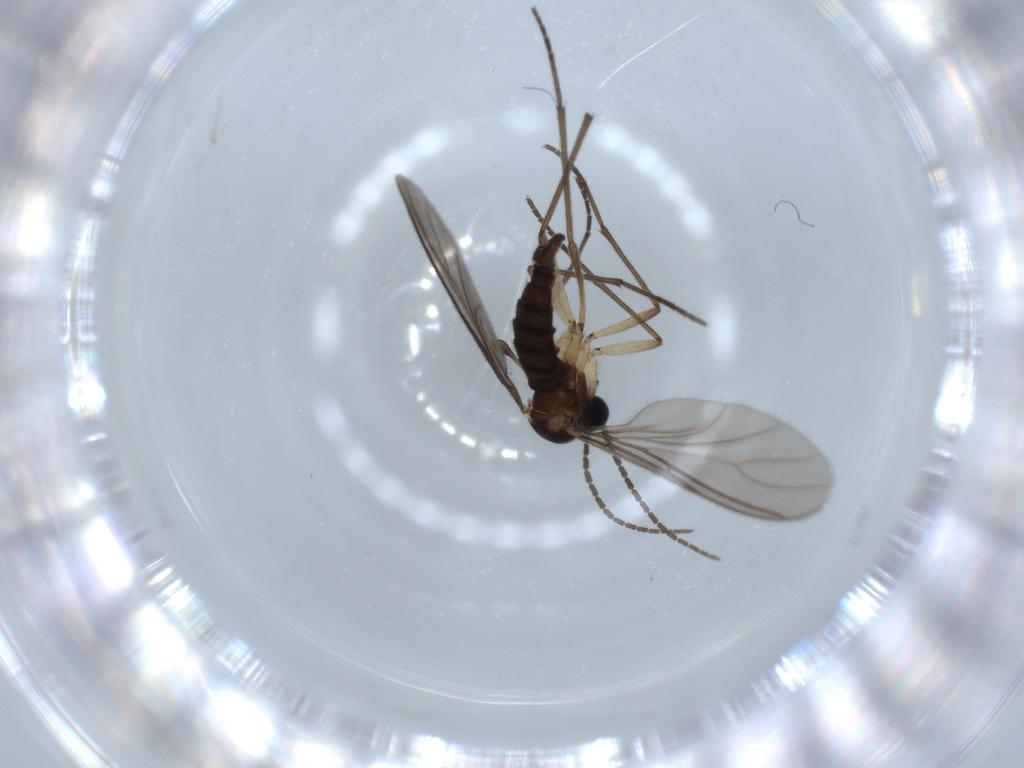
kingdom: Animalia
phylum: Arthropoda
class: Insecta
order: Diptera
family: Sciaridae
